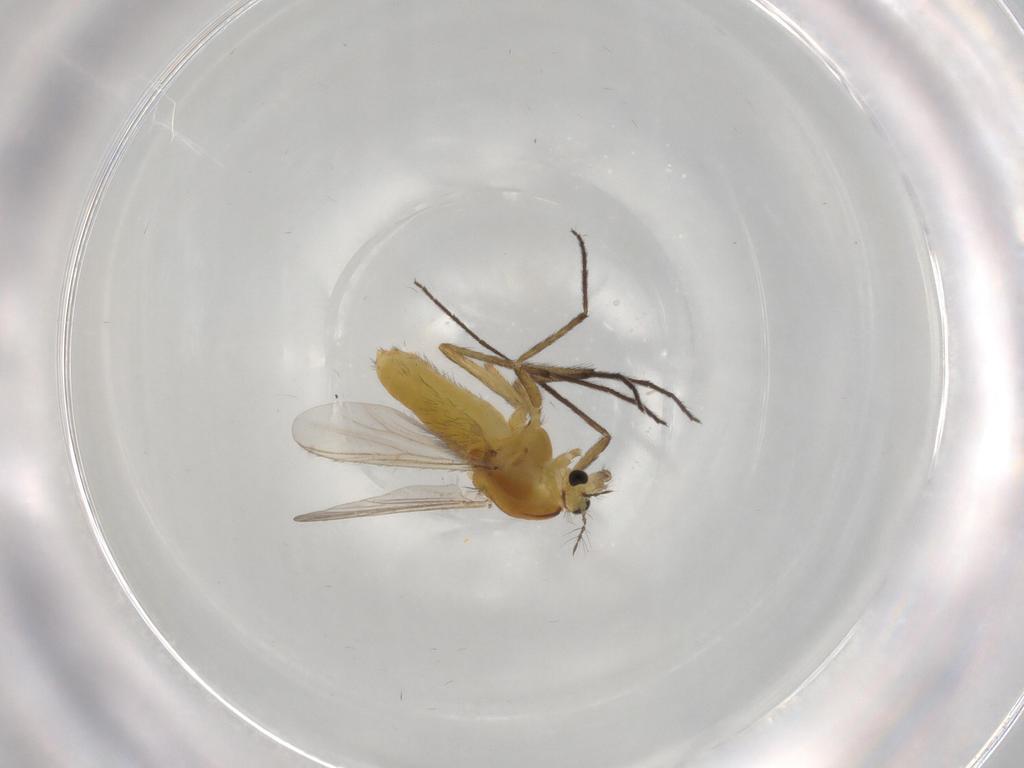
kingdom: Animalia
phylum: Arthropoda
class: Insecta
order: Diptera
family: Chironomidae
